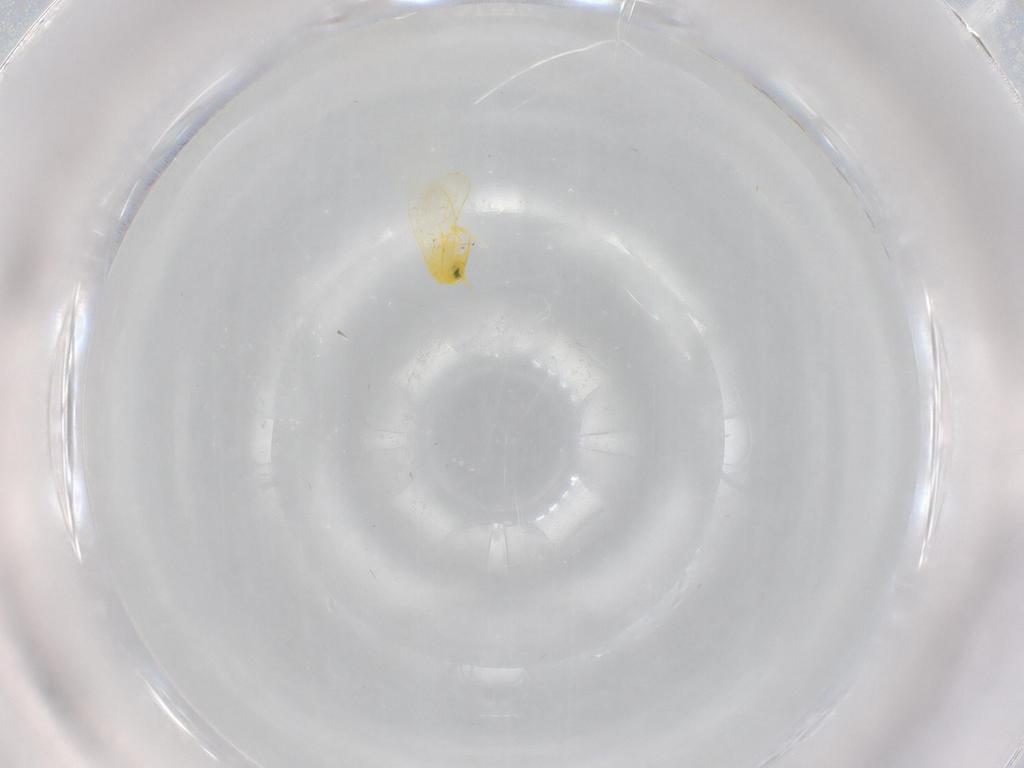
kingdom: Animalia
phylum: Arthropoda
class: Insecta
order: Hemiptera
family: Aleyrodidae
